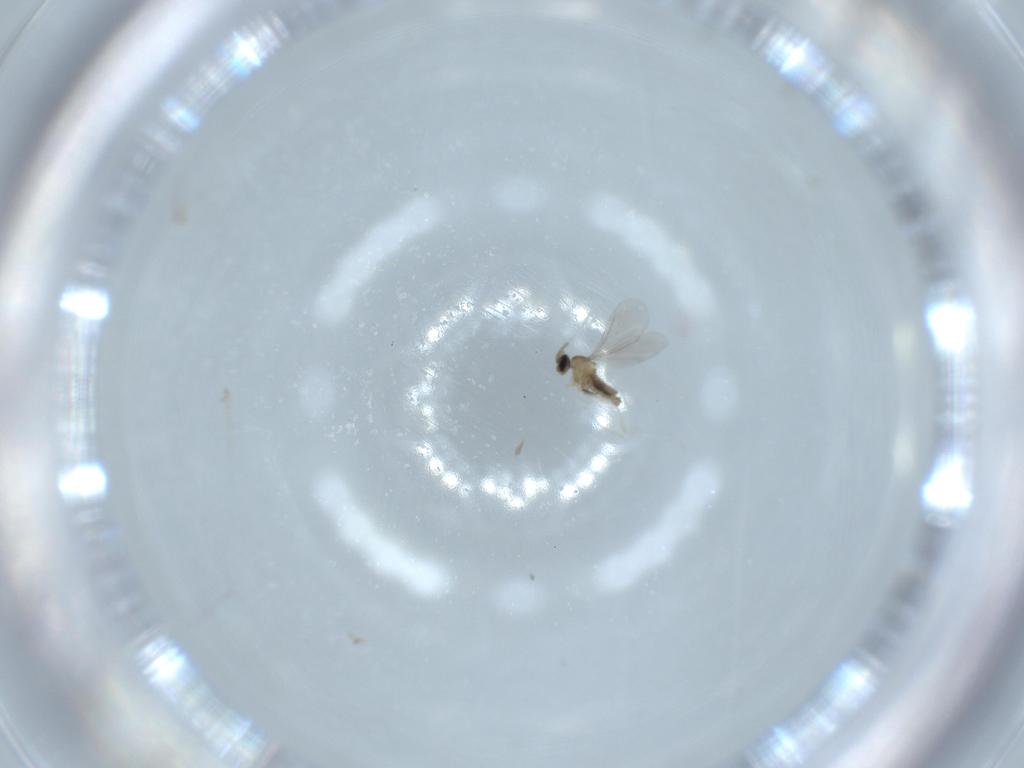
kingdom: Animalia
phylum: Arthropoda
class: Insecta
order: Diptera
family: Cecidomyiidae
